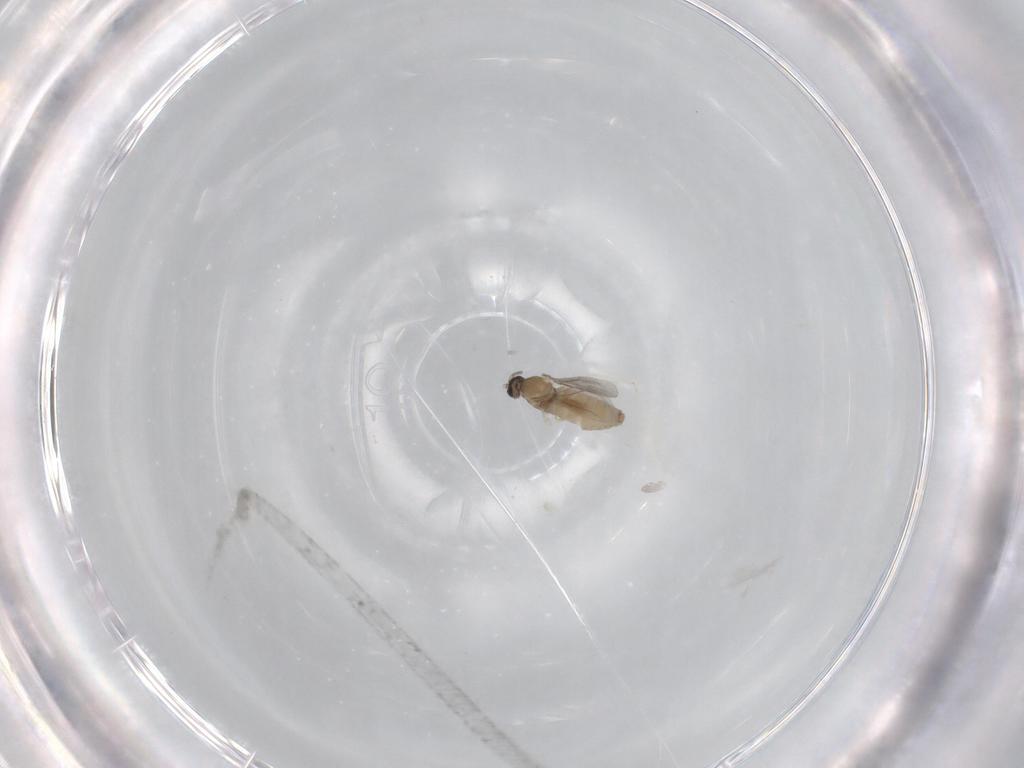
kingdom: Animalia
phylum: Arthropoda
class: Insecta
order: Diptera
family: Cecidomyiidae
